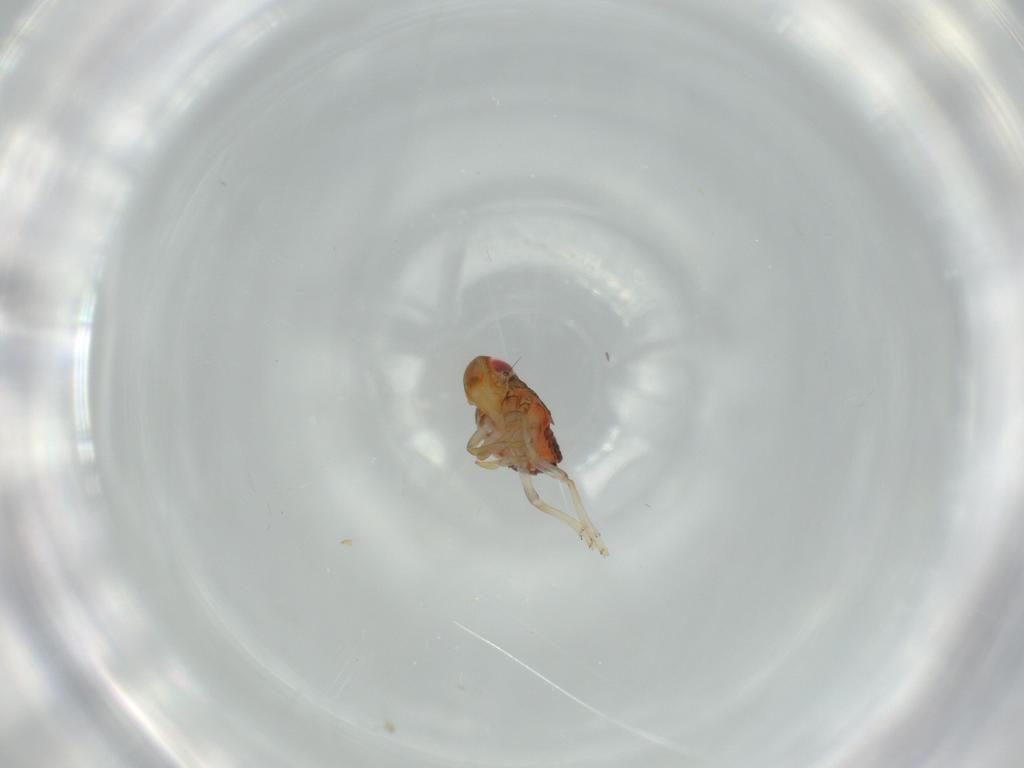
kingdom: Animalia
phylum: Arthropoda
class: Insecta
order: Hemiptera
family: Issidae
